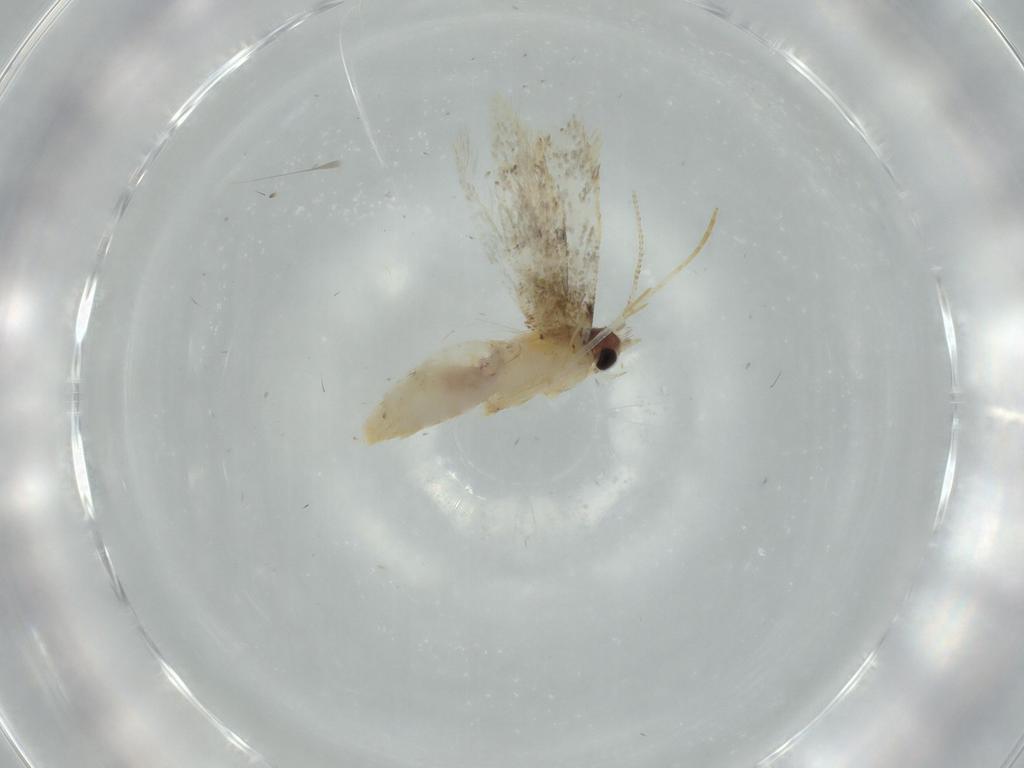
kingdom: Animalia
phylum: Arthropoda
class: Insecta
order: Lepidoptera
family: Tineidae
